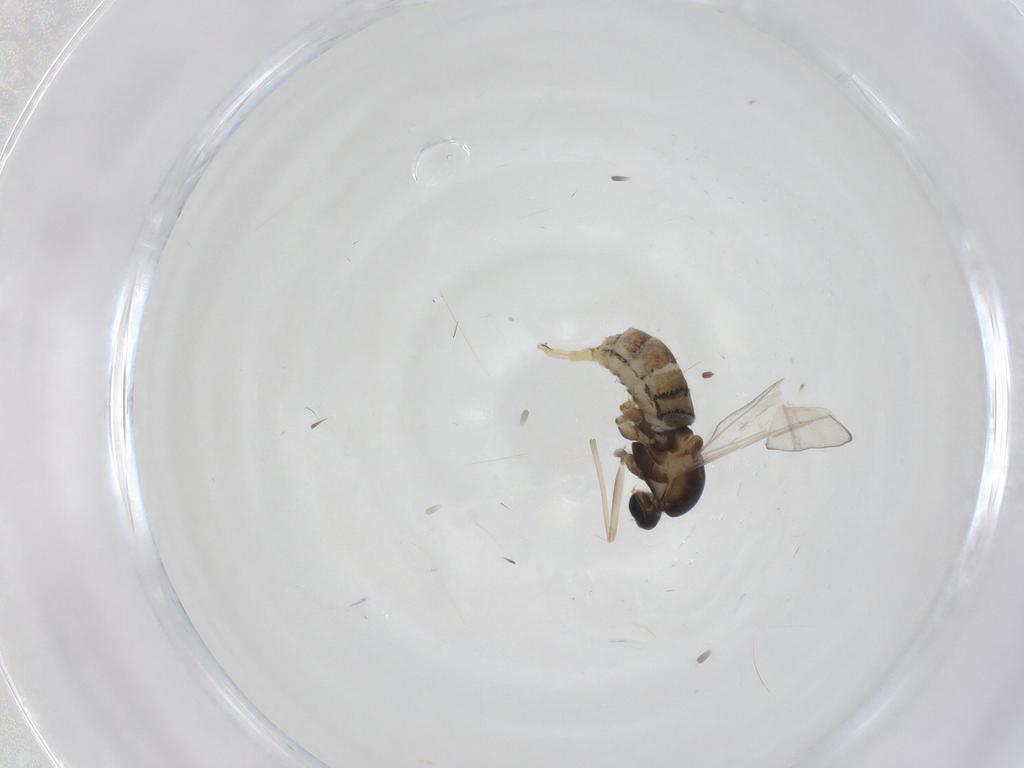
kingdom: Animalia
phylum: Arthropoda
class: Insecta
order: Diptera
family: Cecidomyiidae
